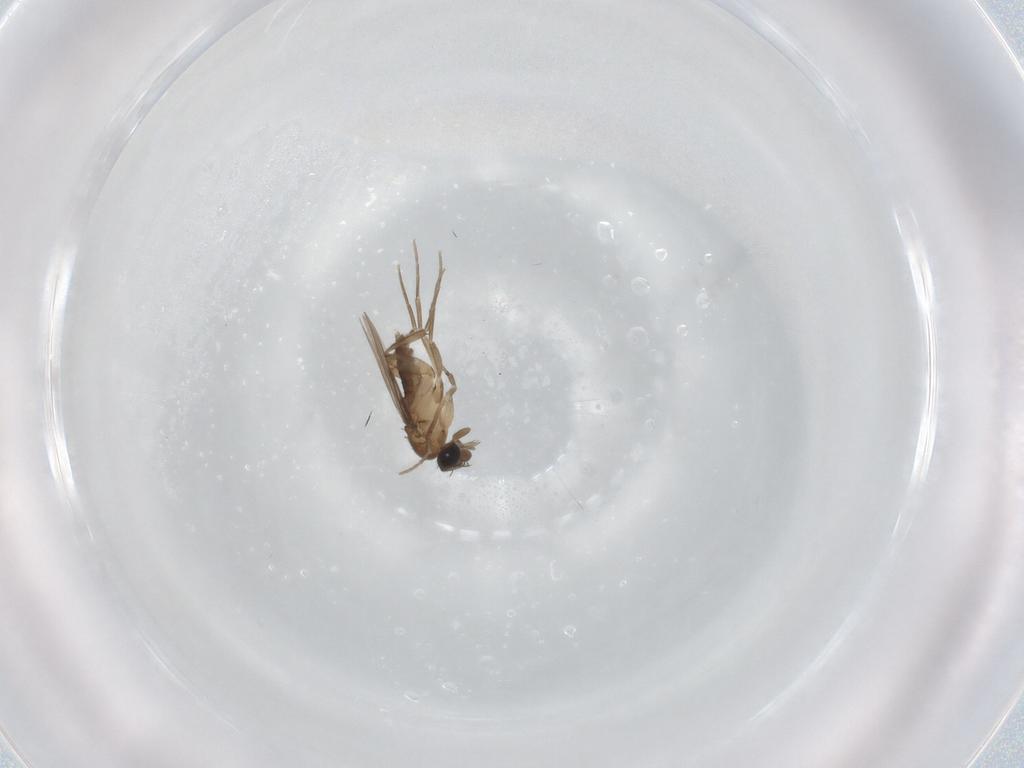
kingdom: Animalia
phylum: Arthropoda
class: Insecta
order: Diptera
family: Phoridae
